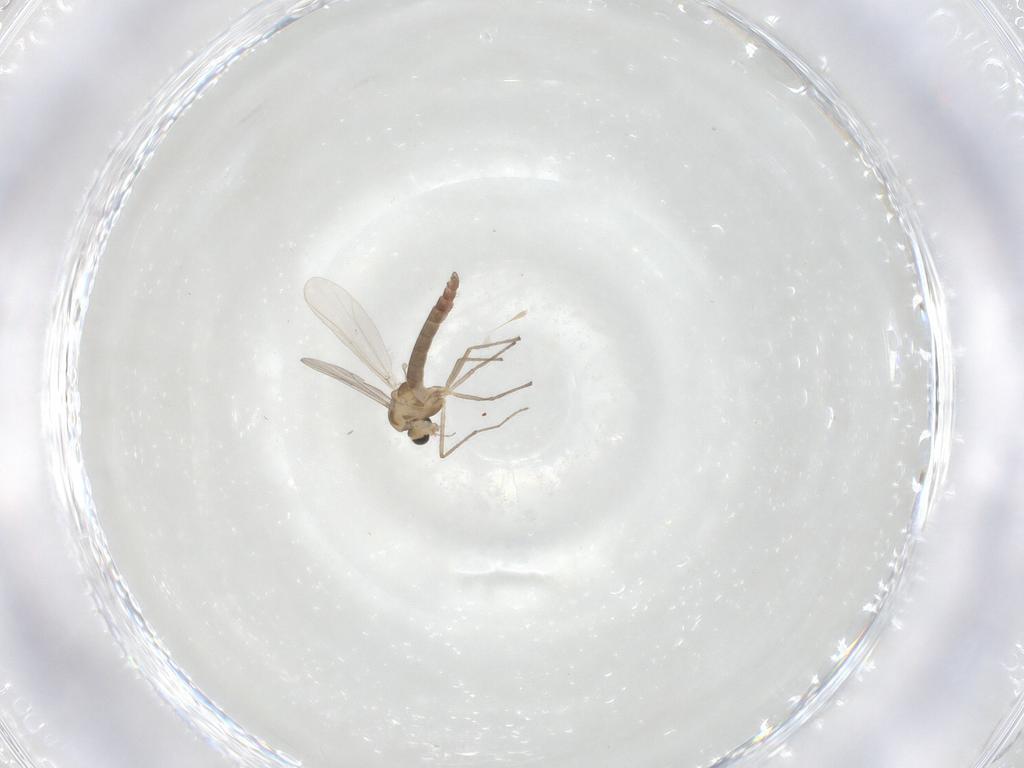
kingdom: Animalia
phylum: Arthropoda
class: Insecta
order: Diptera
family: Chironomidae
